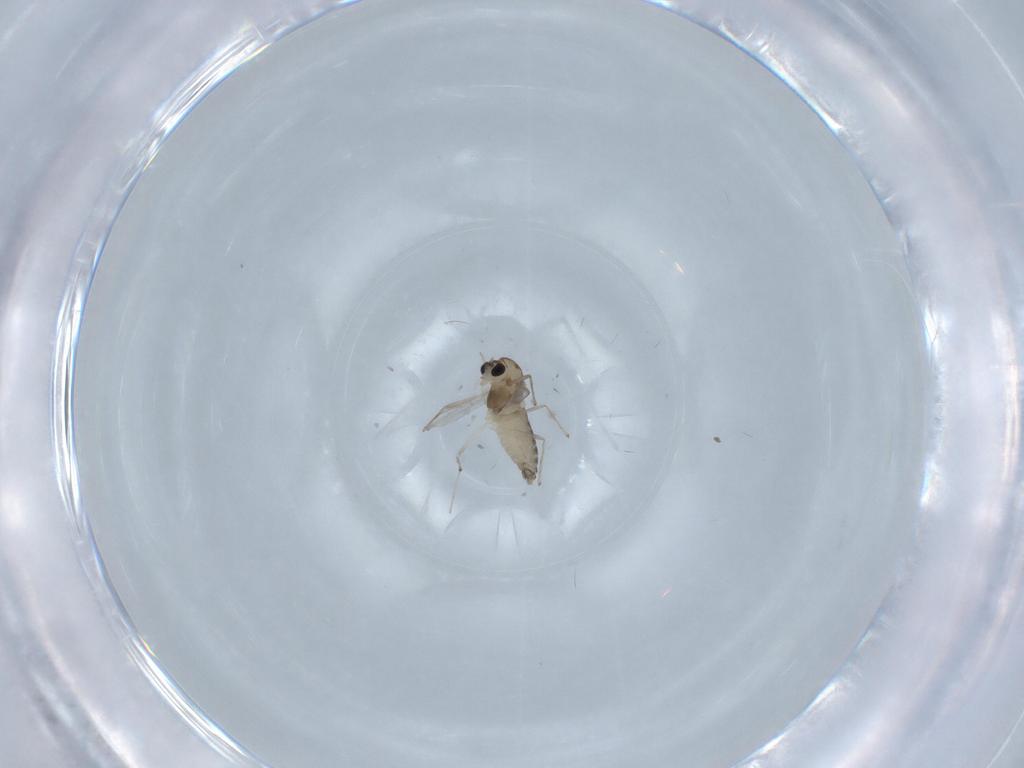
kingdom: Animalia
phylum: Arthropoda
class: Insecta
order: Diptera
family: Chironomidae
